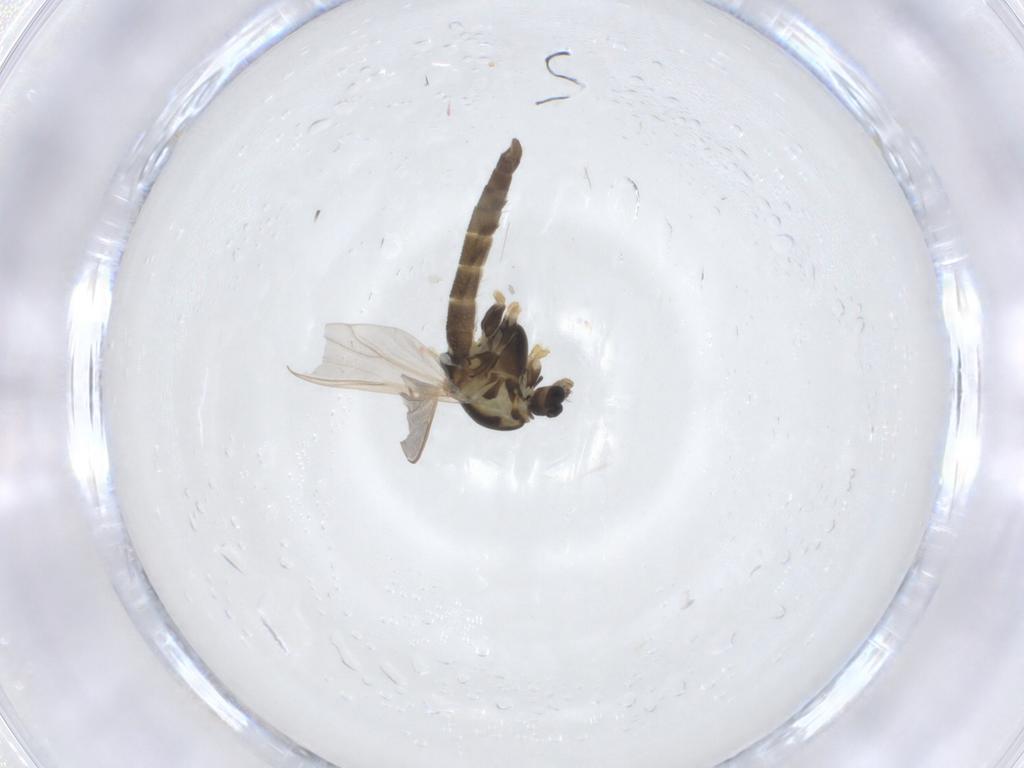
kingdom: Animalia
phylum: Arthropoda
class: Insecta
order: Diptera
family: Chironomidae
